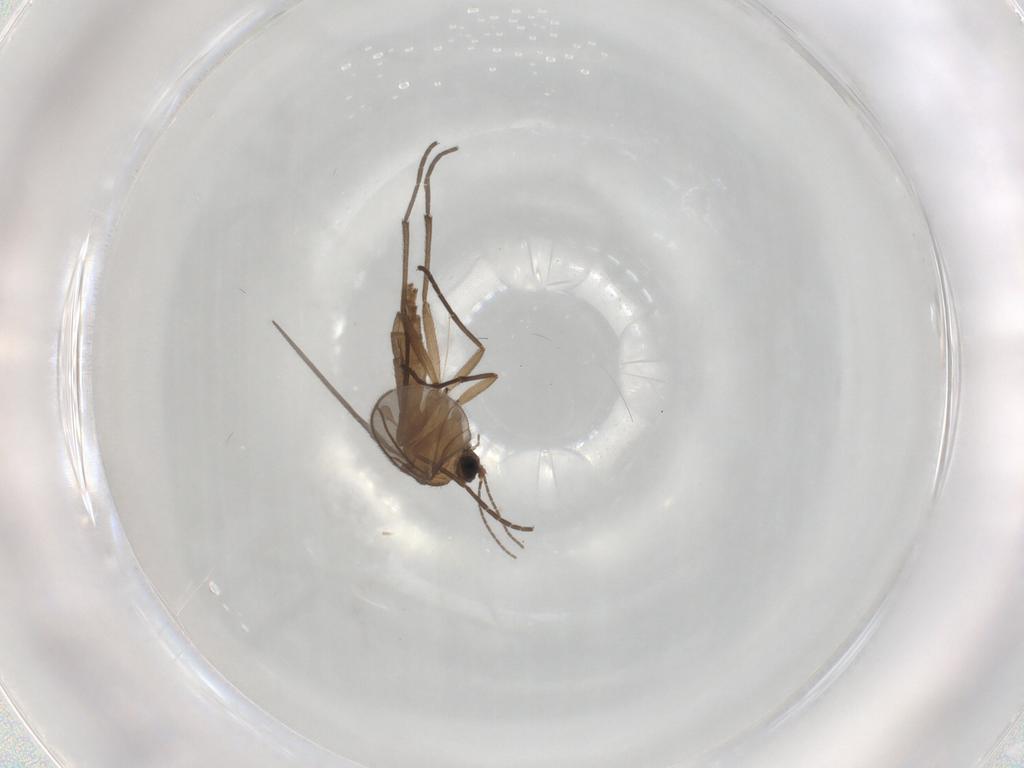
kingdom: Animalia
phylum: Arthropoda
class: Insecta
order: Diptera
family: Sciaridae
